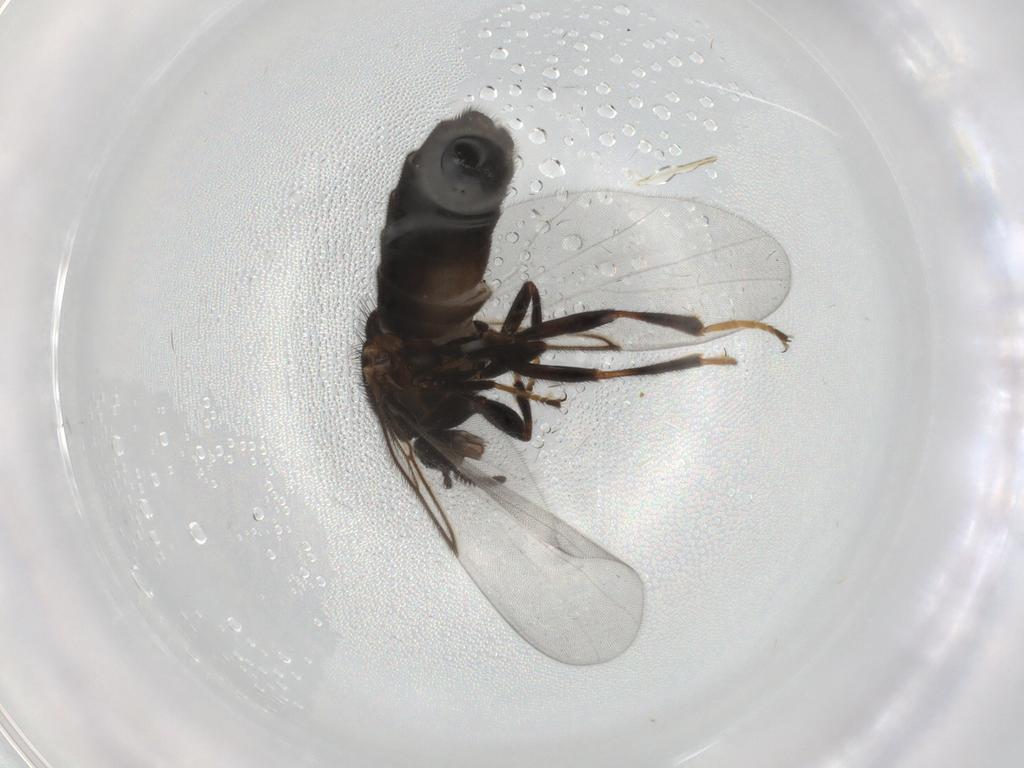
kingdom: Animalia
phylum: Arthropoda
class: Insecta
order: Diptera
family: Scatopsidae
